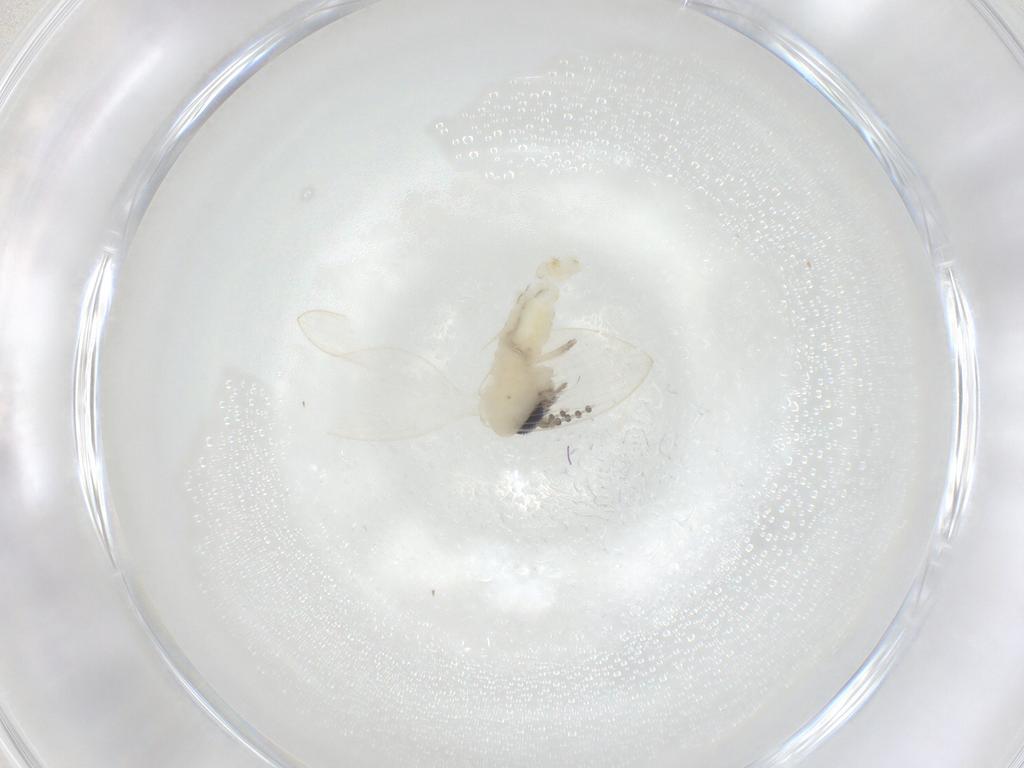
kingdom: Animalia
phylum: Arthropoda
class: Insecta
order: Diptera
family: Psychodidae
